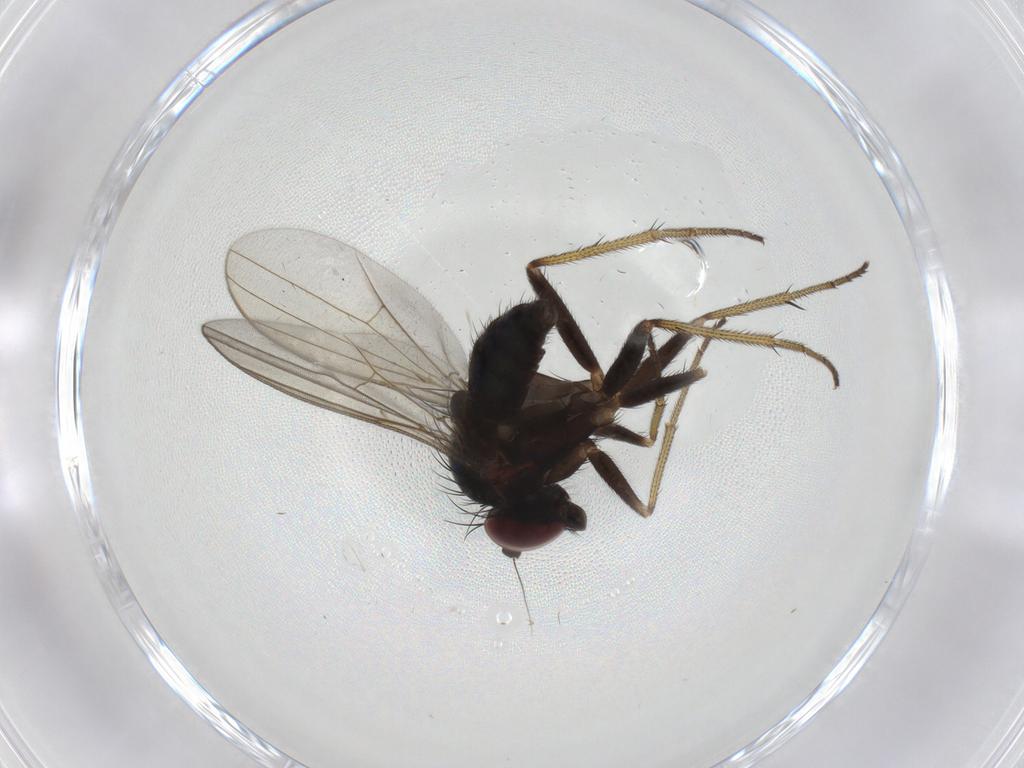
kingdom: Animalia
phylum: Arthropoda
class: Insecta
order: Diptera
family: Dolichopodidae
